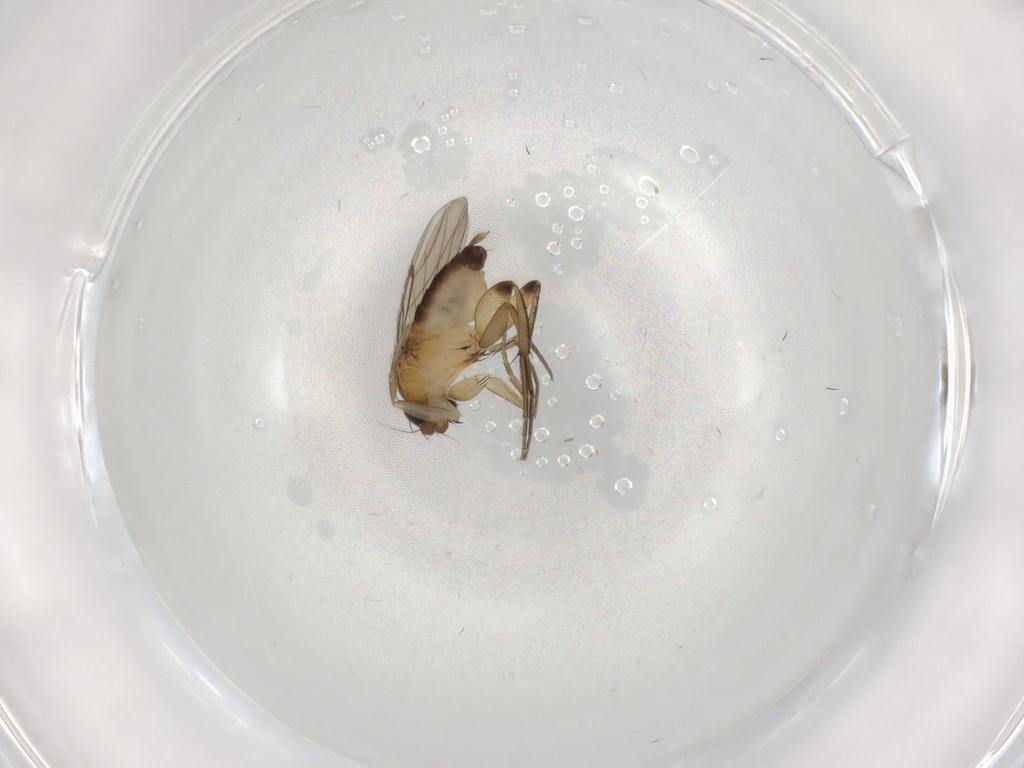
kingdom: Animalia
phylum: Arthropoda
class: Insecta
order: Diptera
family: Phoridae
